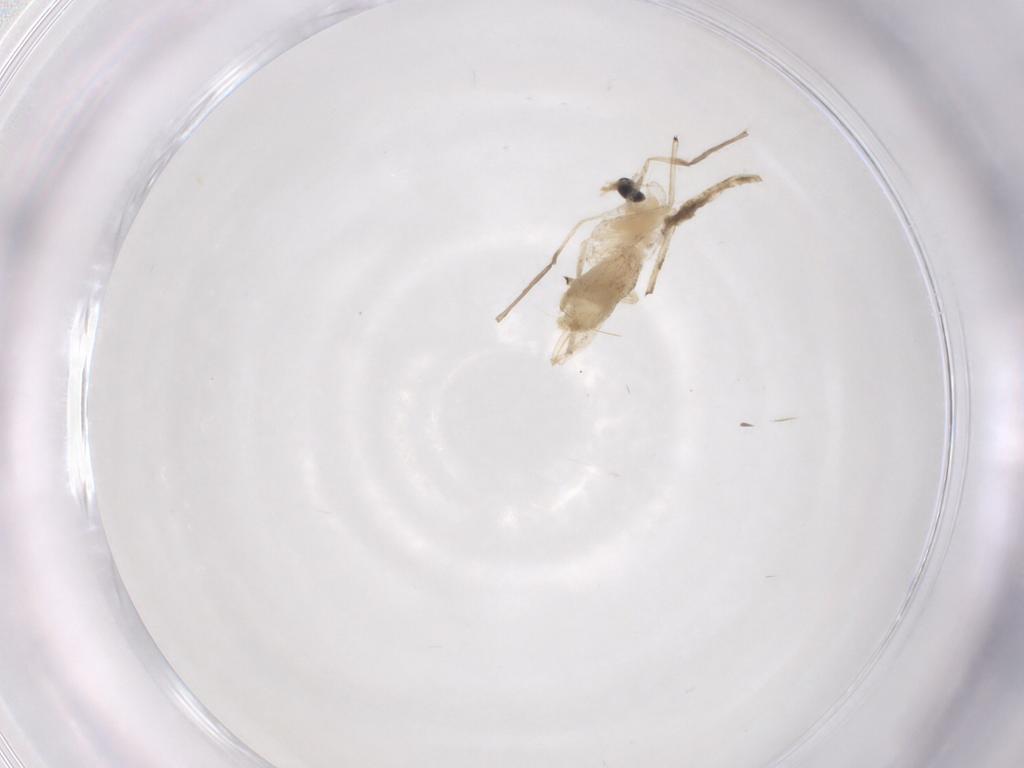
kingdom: Animalia
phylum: Arthropoda
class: Insecta
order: Diptera
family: Chironomidae
